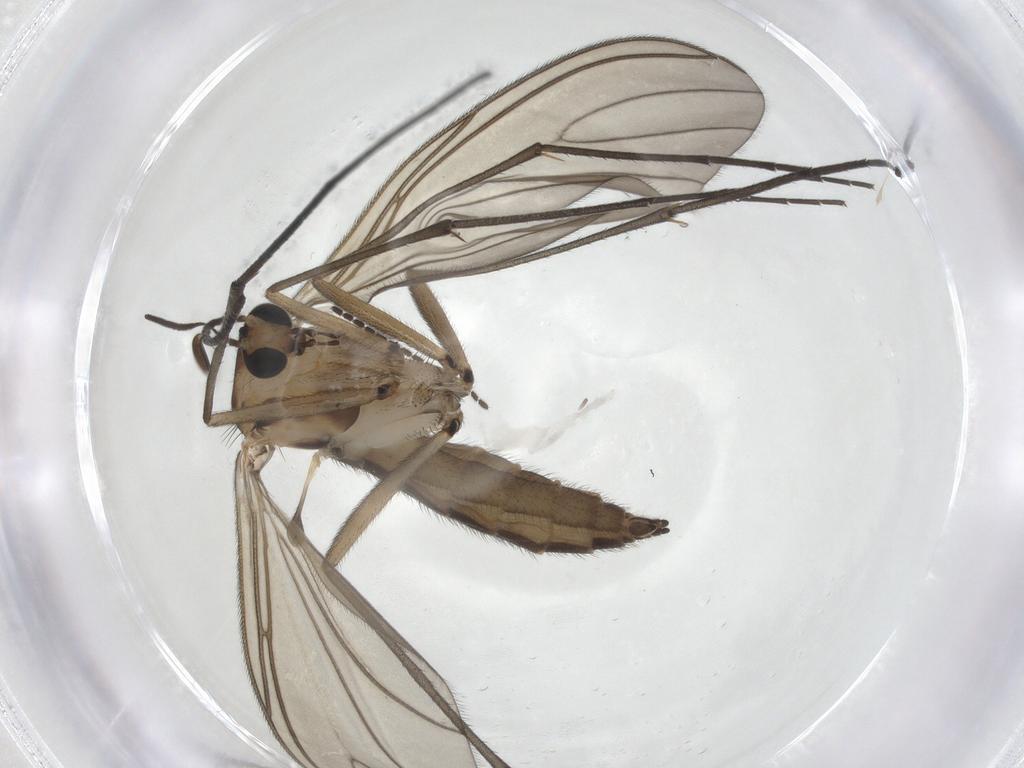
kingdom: Animalia
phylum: Arthropoda
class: Insecta
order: Diptera
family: Sciaridae
